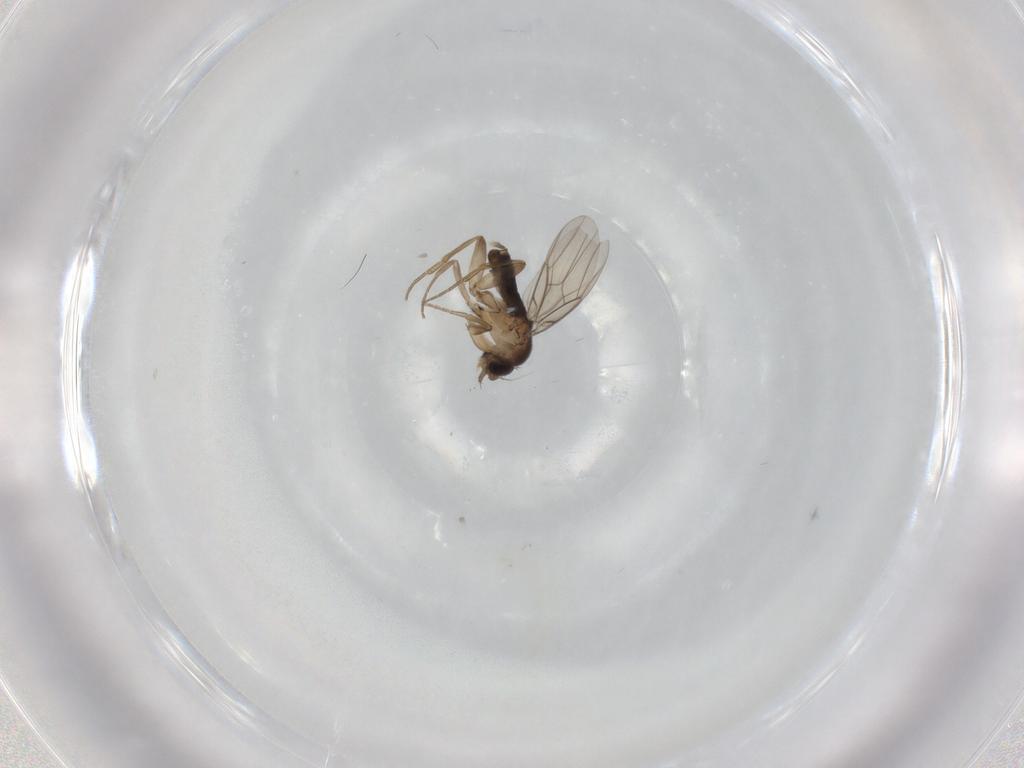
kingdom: Animalia
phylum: Arthropoda
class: Insecta
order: Diptera
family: Phoridae
